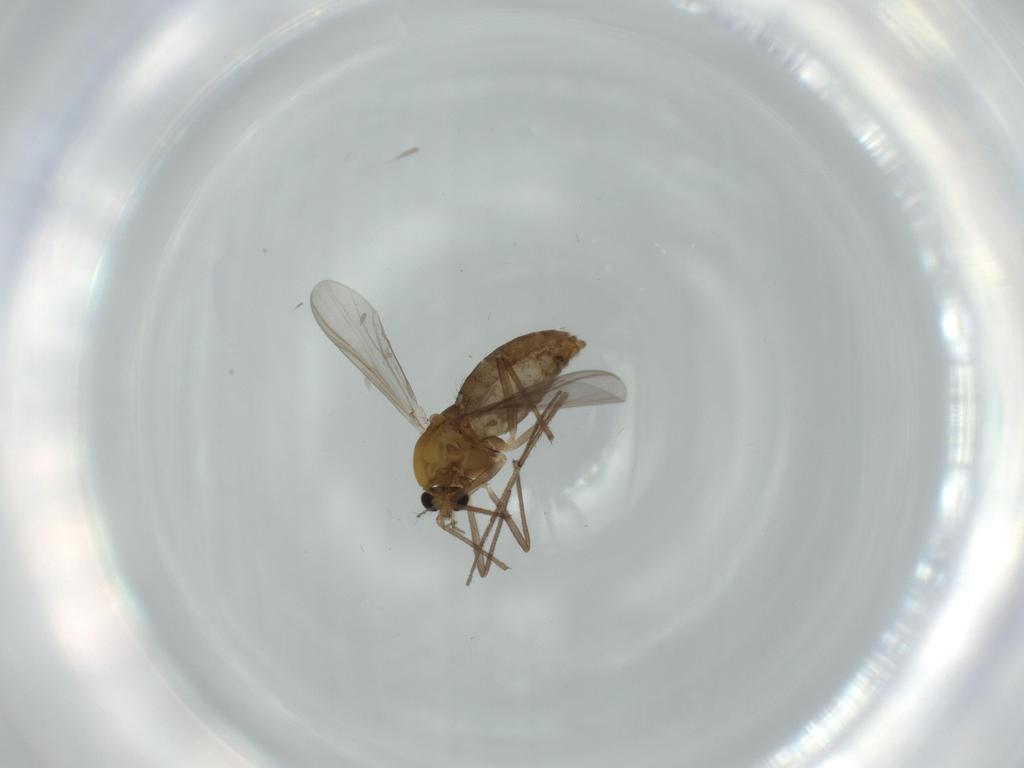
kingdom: Animalia
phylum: Arthropoda
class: Insecta
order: Diptera
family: Chironomidae
